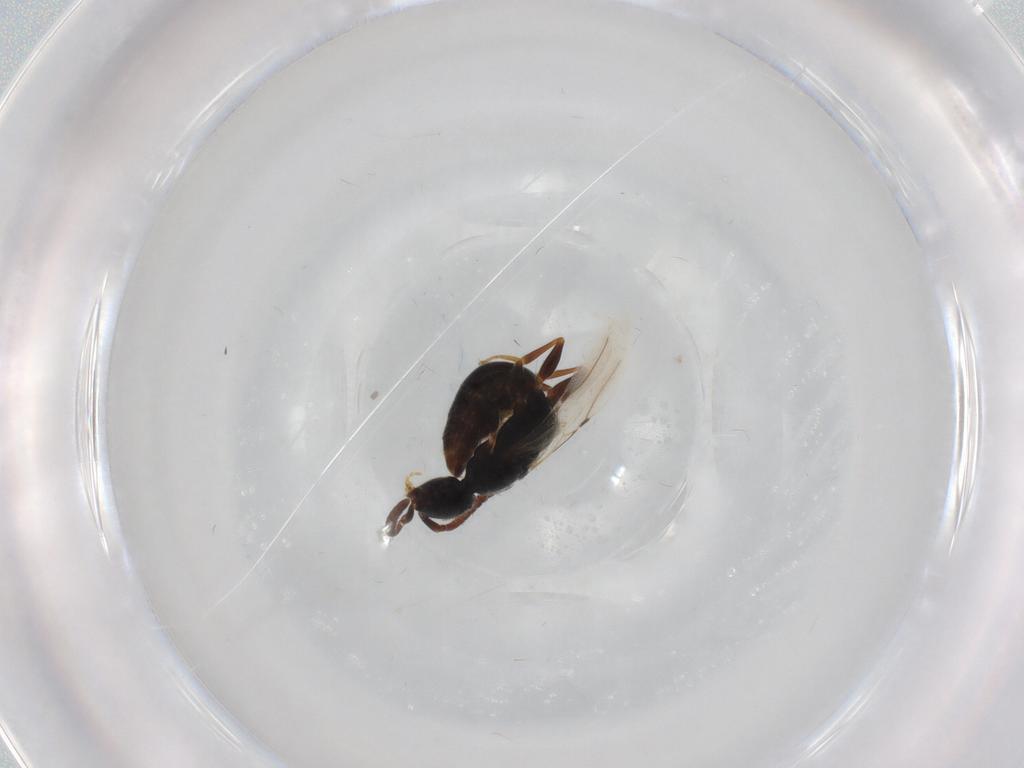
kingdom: Animalia
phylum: Arthropoda
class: Insecta
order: Hymenoptera
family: Bethylidae
